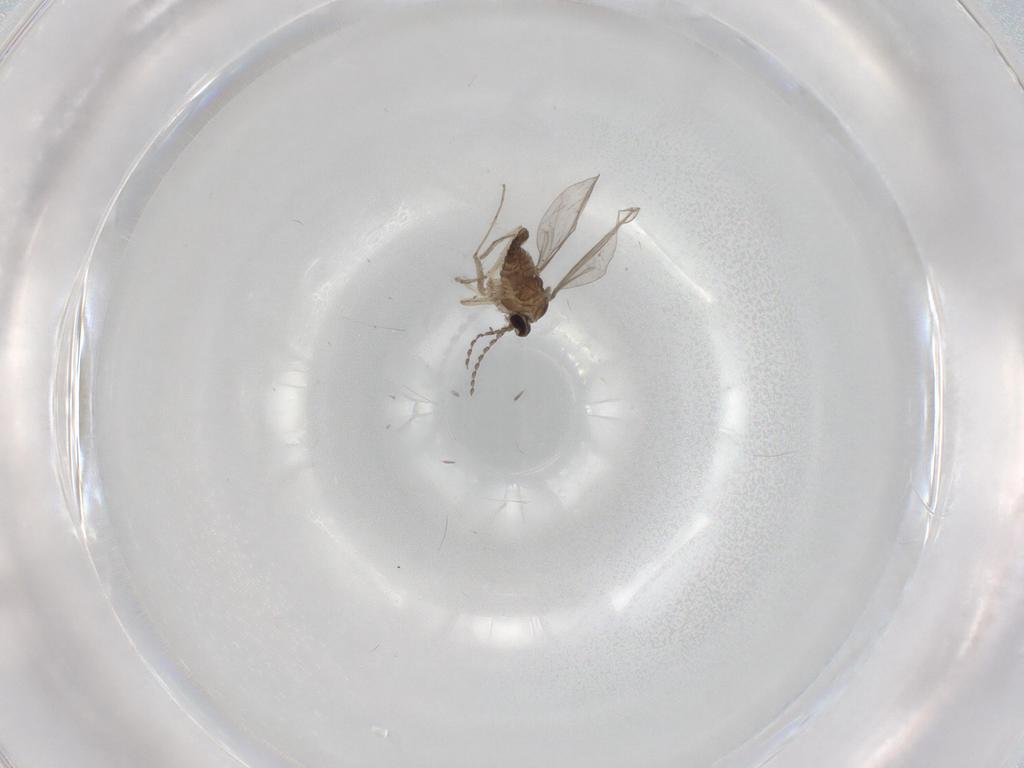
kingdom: Animalia
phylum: Arthropoda
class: Insecta
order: Diptera
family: Cecidomyiidae
